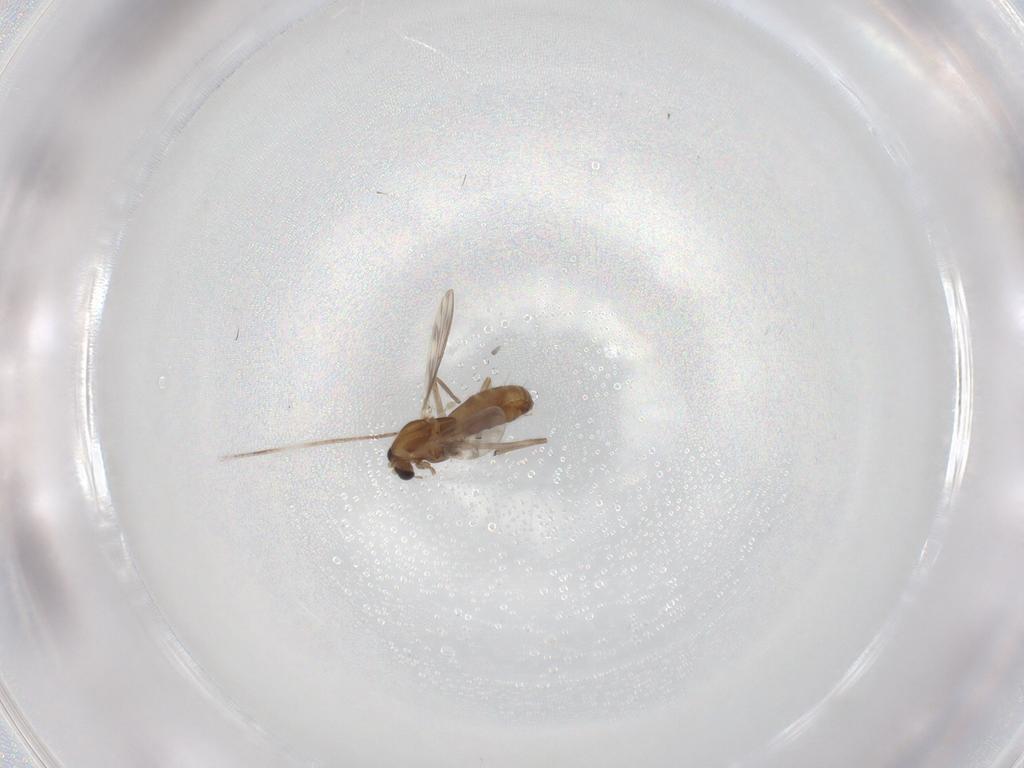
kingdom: Animalia
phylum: Arthropoda
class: Insecta
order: Diptera
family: Chironomidae
